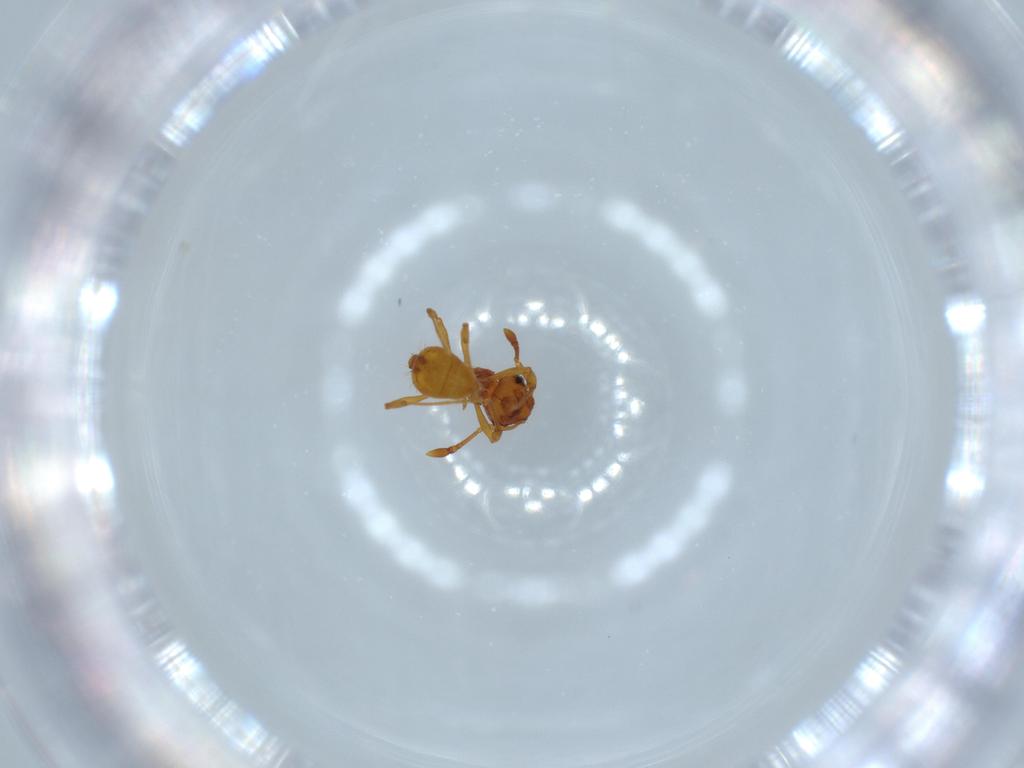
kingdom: Animalia
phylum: Arthropoda
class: Insecta
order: Hymenoptera
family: Formicidae
